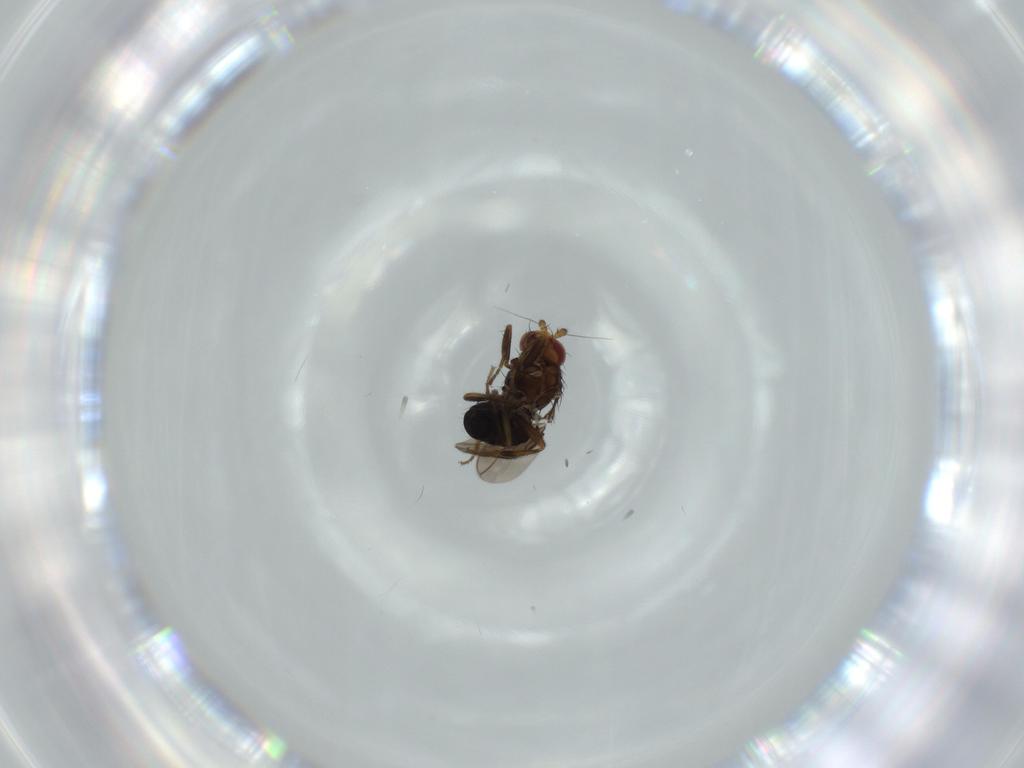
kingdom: Animalia
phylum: Arthropoda
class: Insecta
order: Diptera
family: Sphaeroceridae
